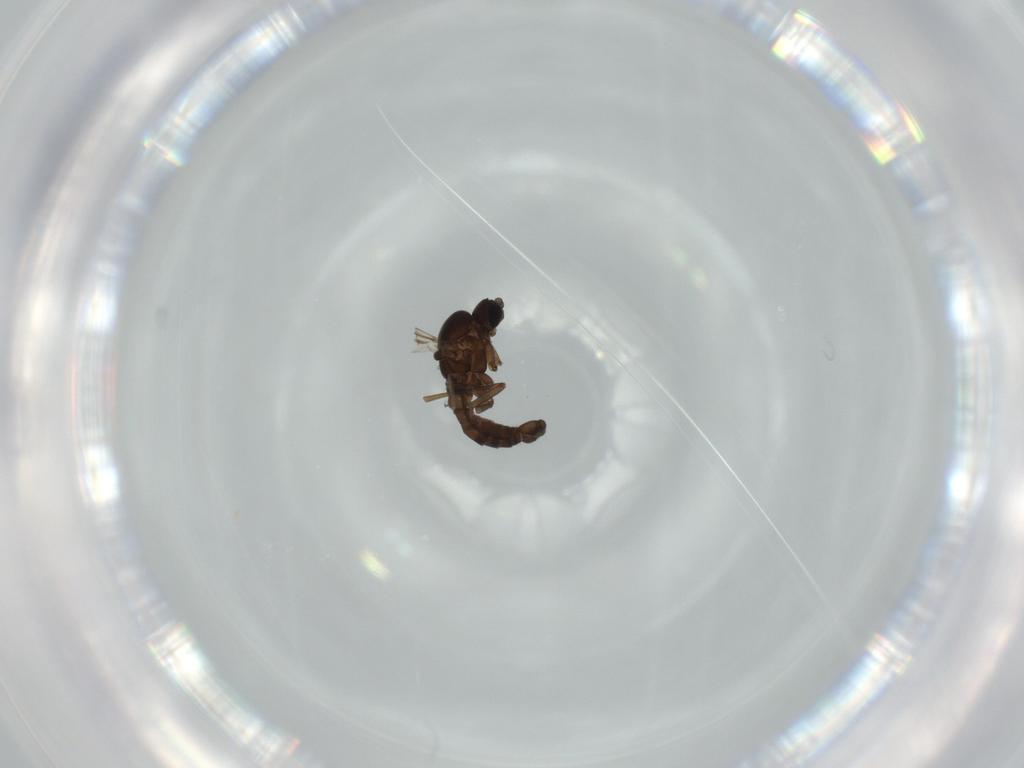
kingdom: Animalia
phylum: Arthropoda
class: Insecta
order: Diptera
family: Sciaridae
